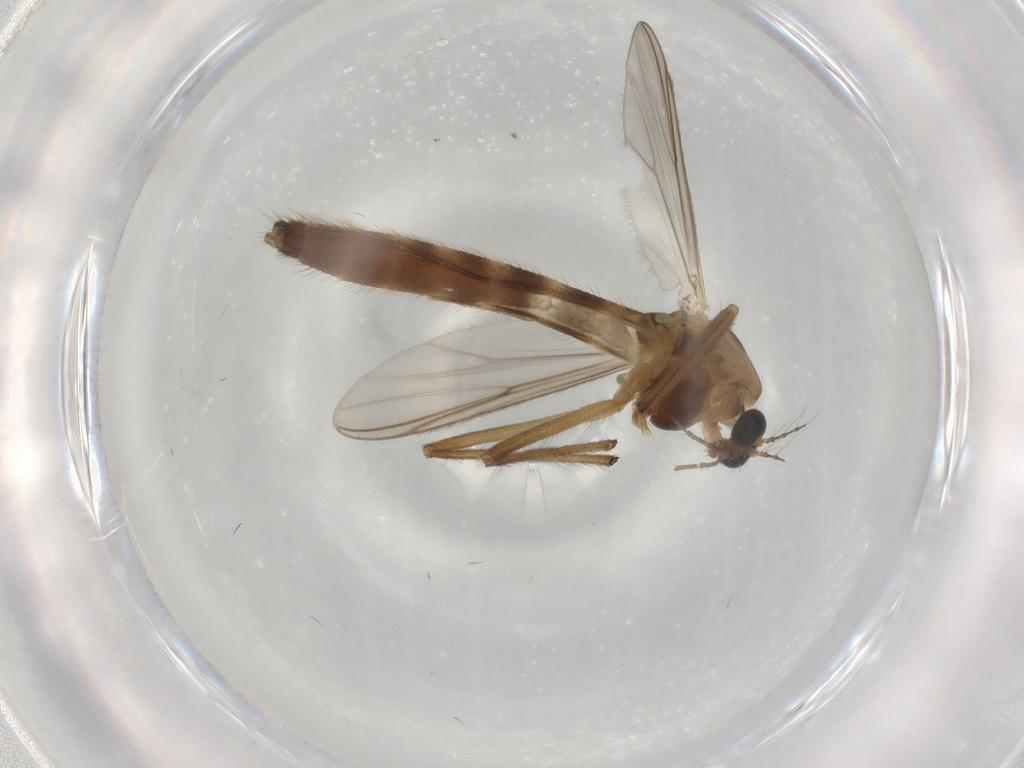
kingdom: Animalia
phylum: Arthropoda
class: Insecta
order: Diptera
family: Chironomidae
